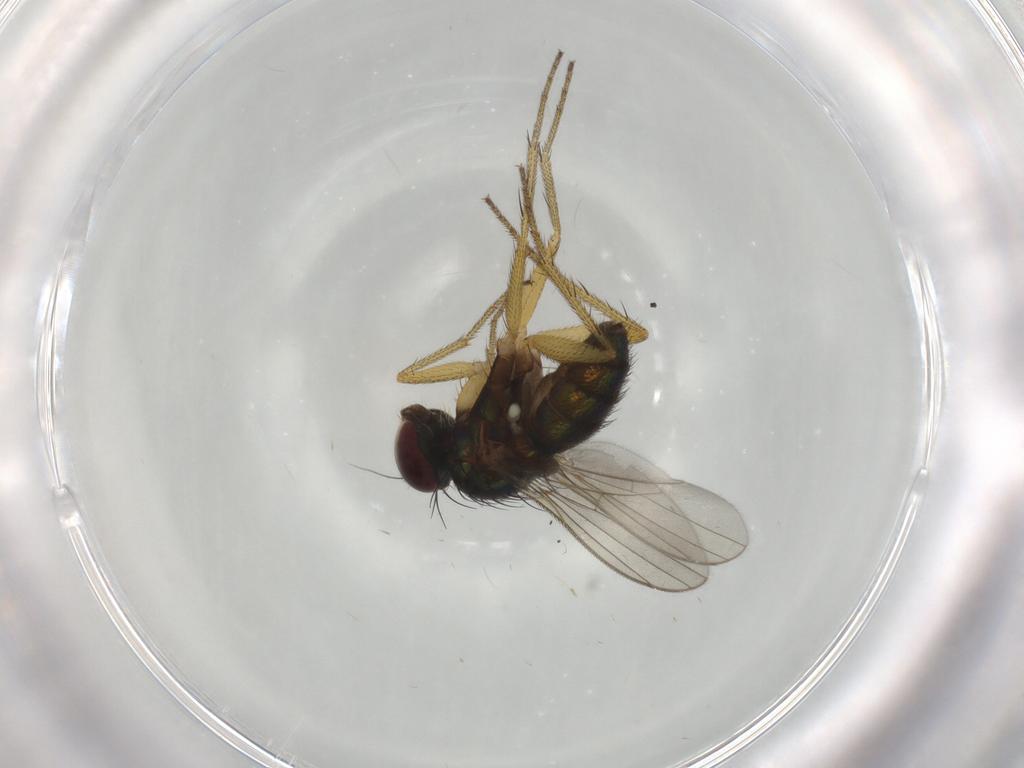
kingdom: Animalia
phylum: Arthropoda
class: Insecta
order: Diptera
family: Dolichopodidae
